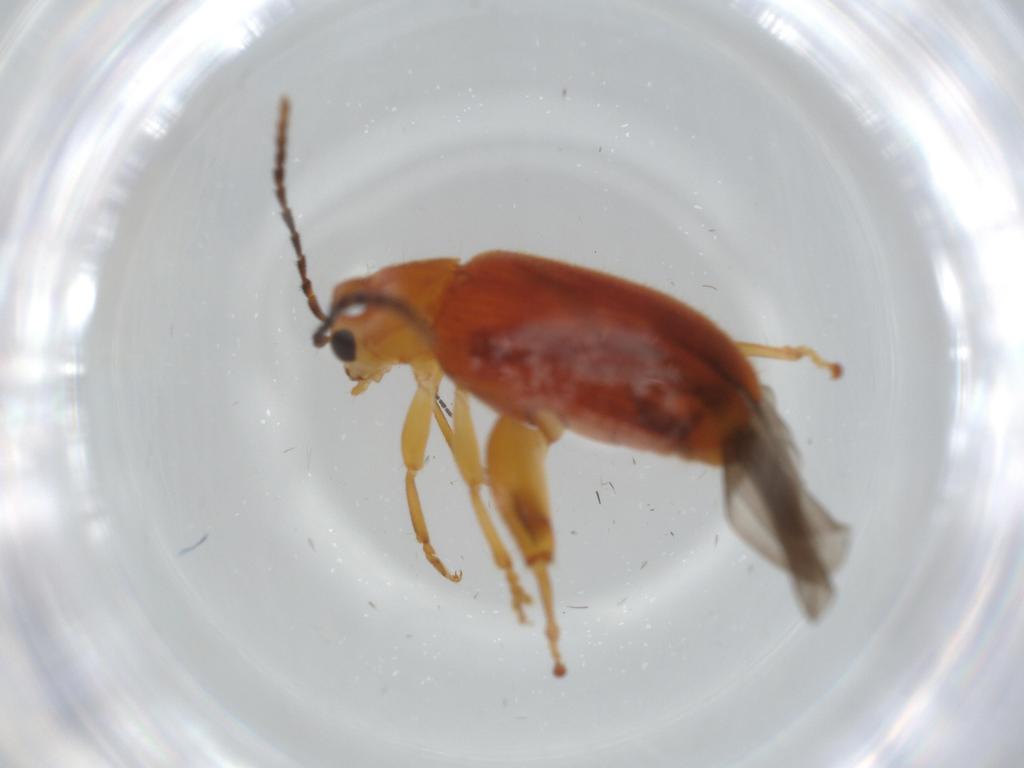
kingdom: Animalia
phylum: Arthropoda
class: Insecta
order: Coleoptera
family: Chrysomelidae
